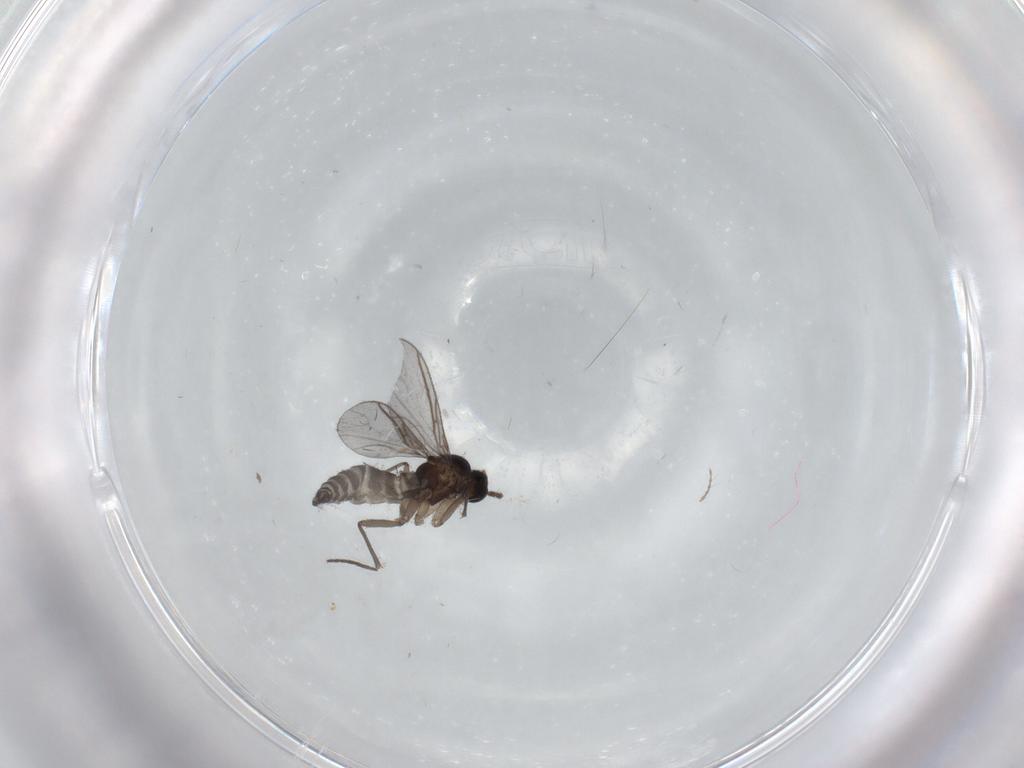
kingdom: Animalia
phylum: Arthropoda
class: Insecta
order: Diptera
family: Chironomidae
